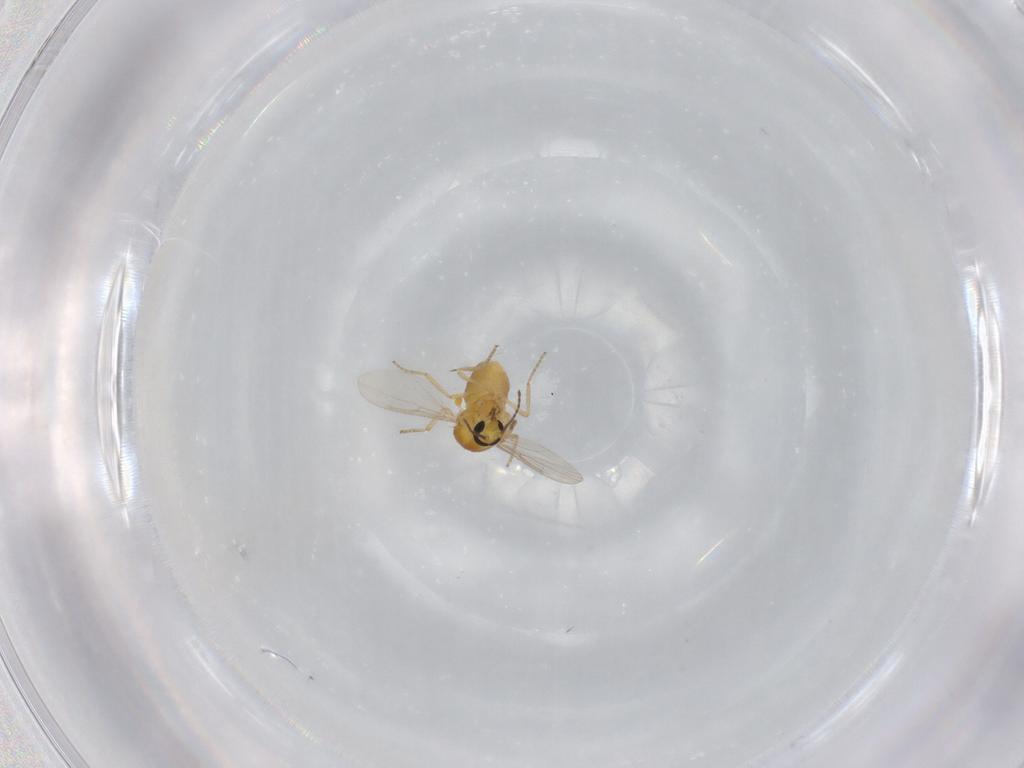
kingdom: Animalia
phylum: Arthropoda
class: Insecta
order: Diptera
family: Ceratopogonidae
